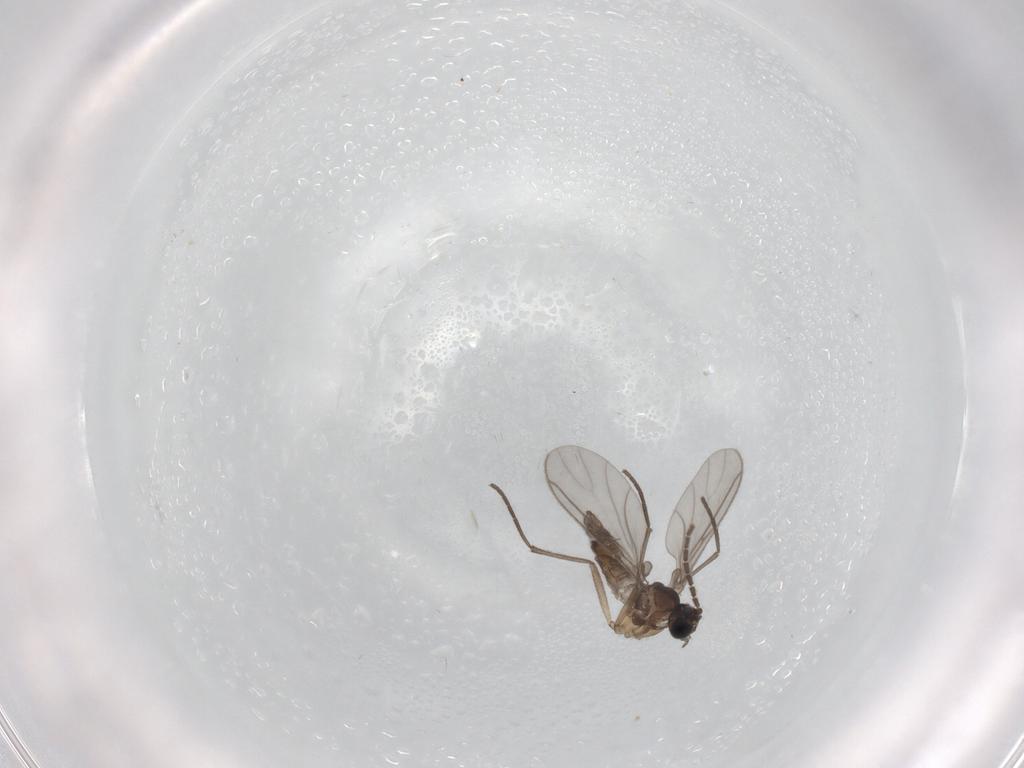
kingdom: Animalia
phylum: Arthropoda
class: Insecta
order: Diptera
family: Sciaridae
